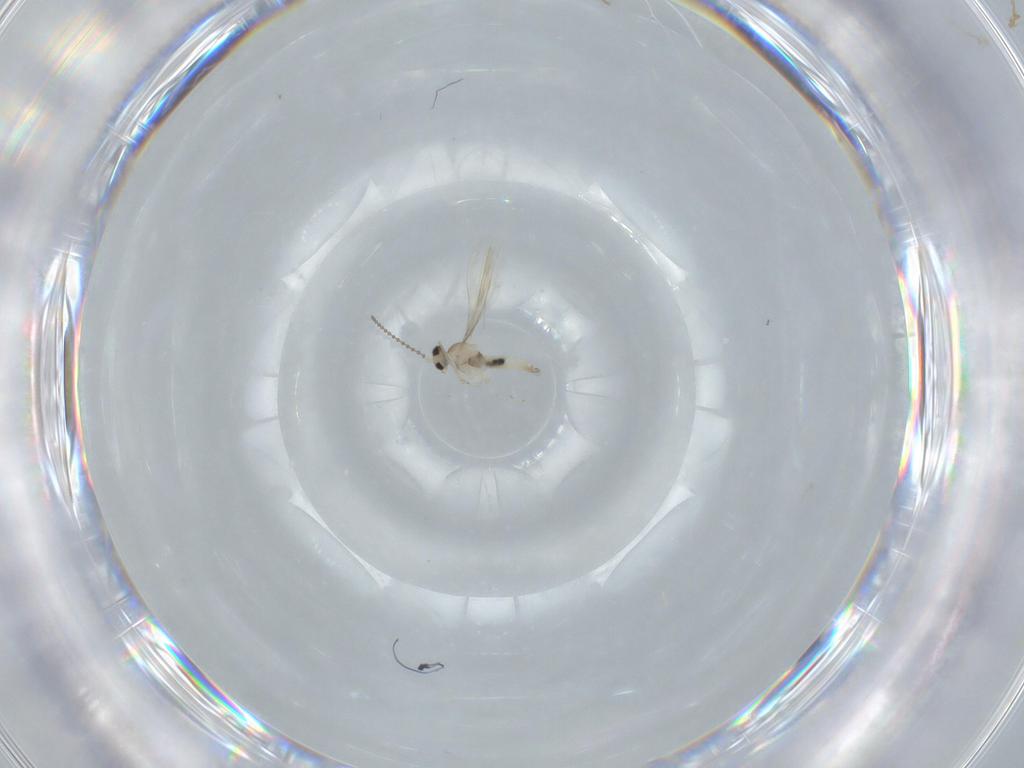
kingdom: Animalia
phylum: Arthropoda
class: Insecta
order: Diptera
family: Cecidomyiidae
